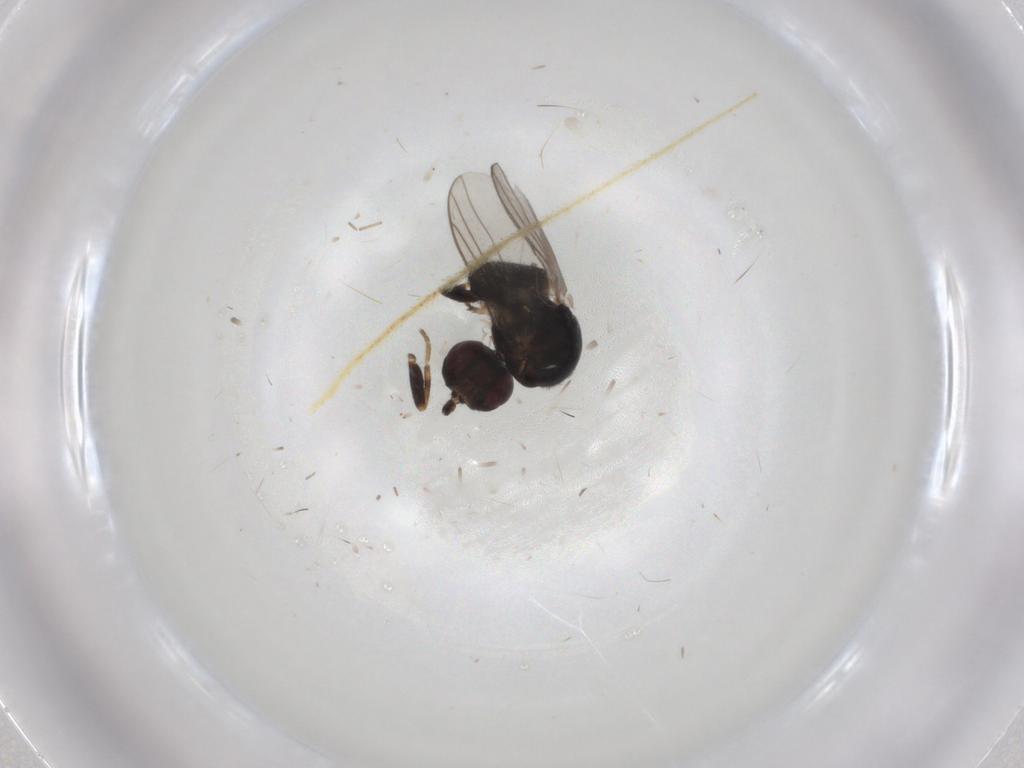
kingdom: Animalia
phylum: Arthropoda
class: Insecta
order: Diptera
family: Chloropidae
